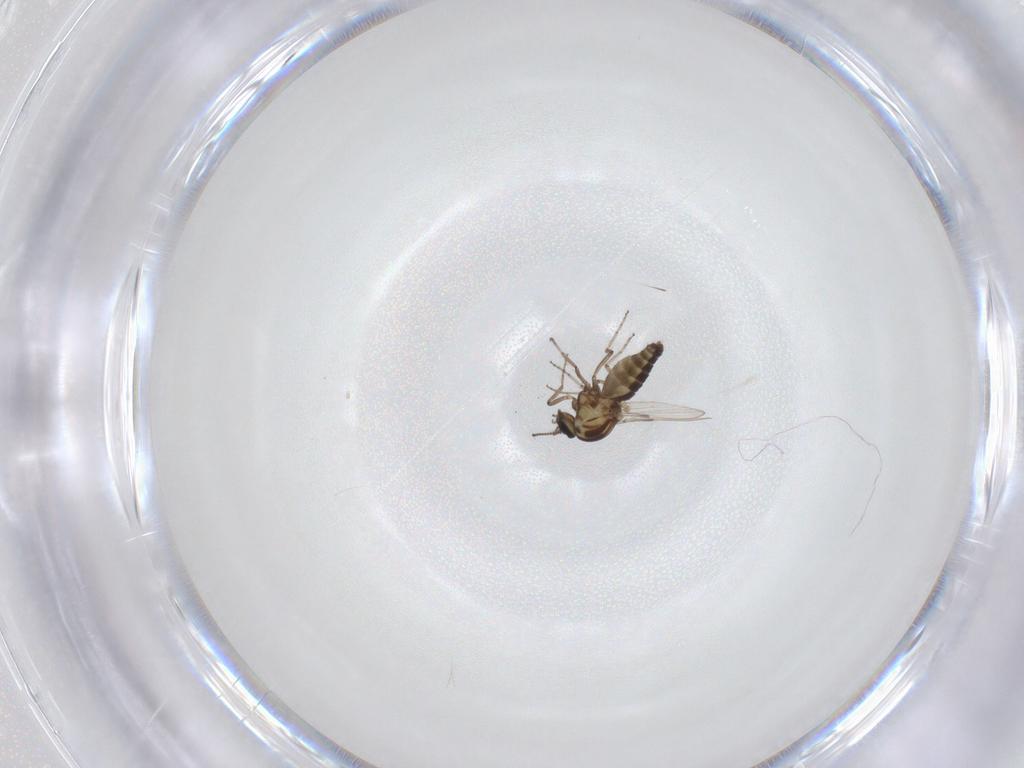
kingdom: Animalia
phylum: Arthropoda
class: Insecta
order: Diptera
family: Ceratopogonidae
